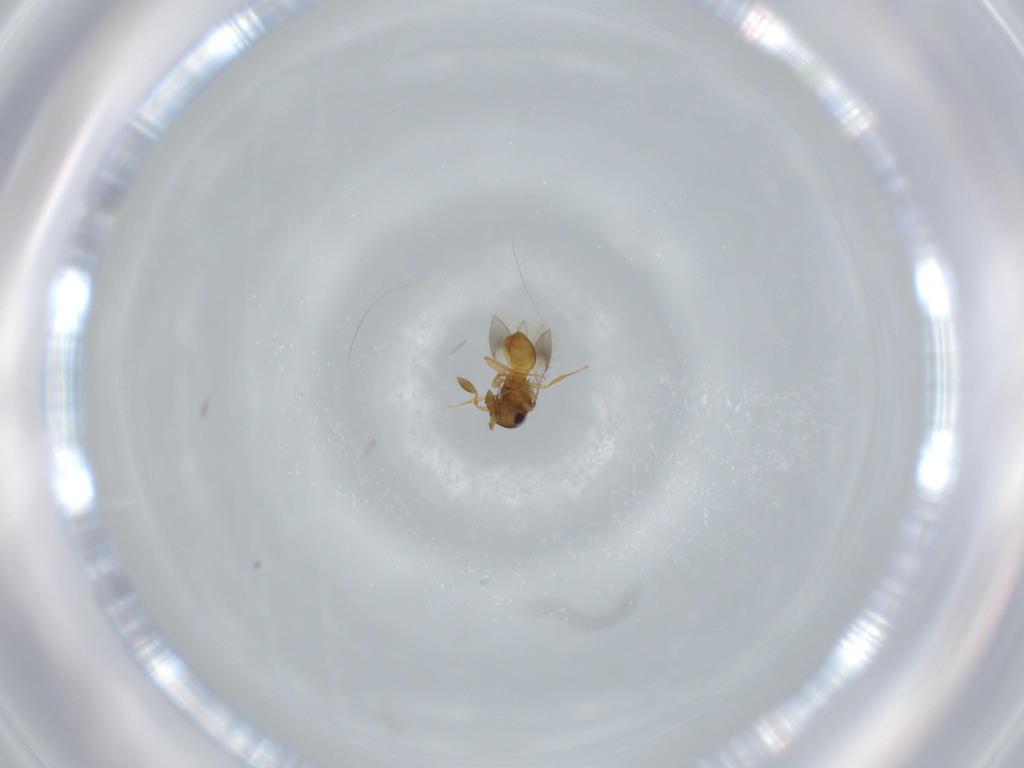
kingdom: Animalia
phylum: Arthropoda
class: Insecta
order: Hymenoptera
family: Scelionidae
